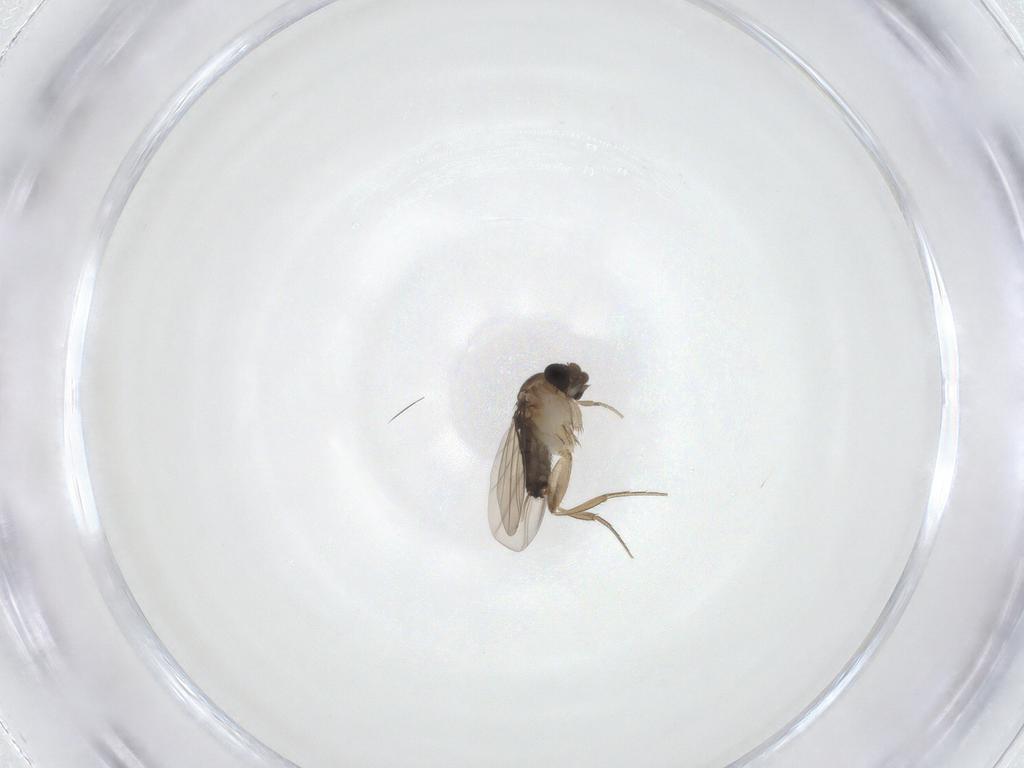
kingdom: Animalia
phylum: Arthropoda
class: Insecta
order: Diptera
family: Phoridae
